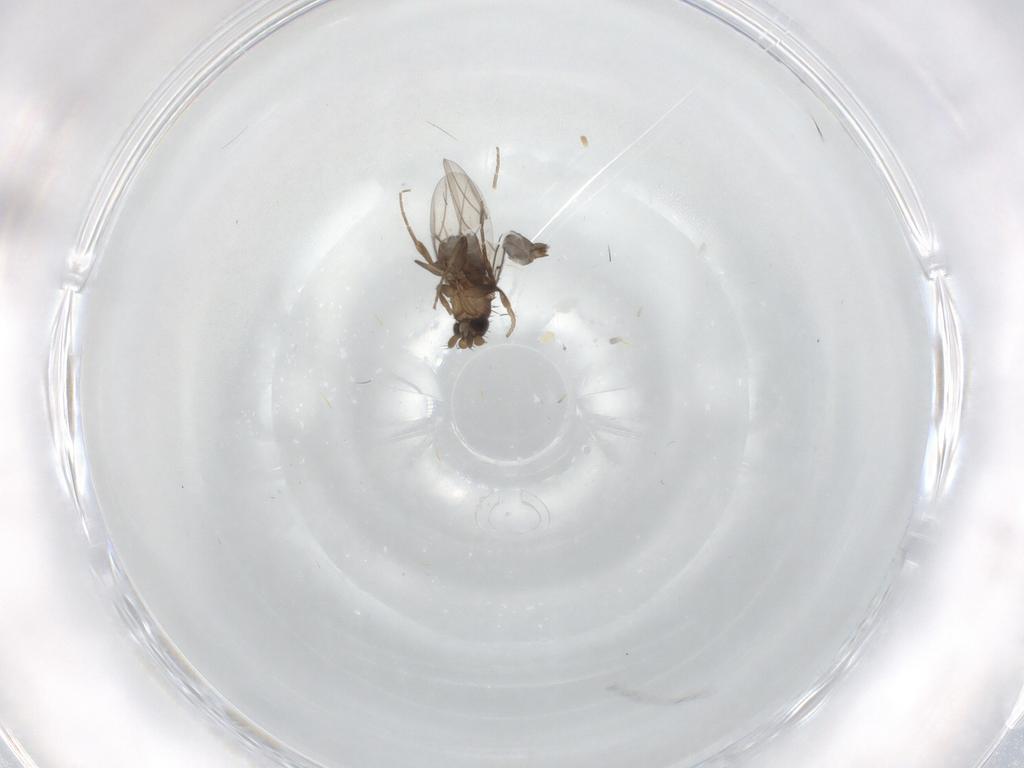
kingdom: Animalia
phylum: Arthropoda
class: Insecta
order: Diptera
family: Phoridae
